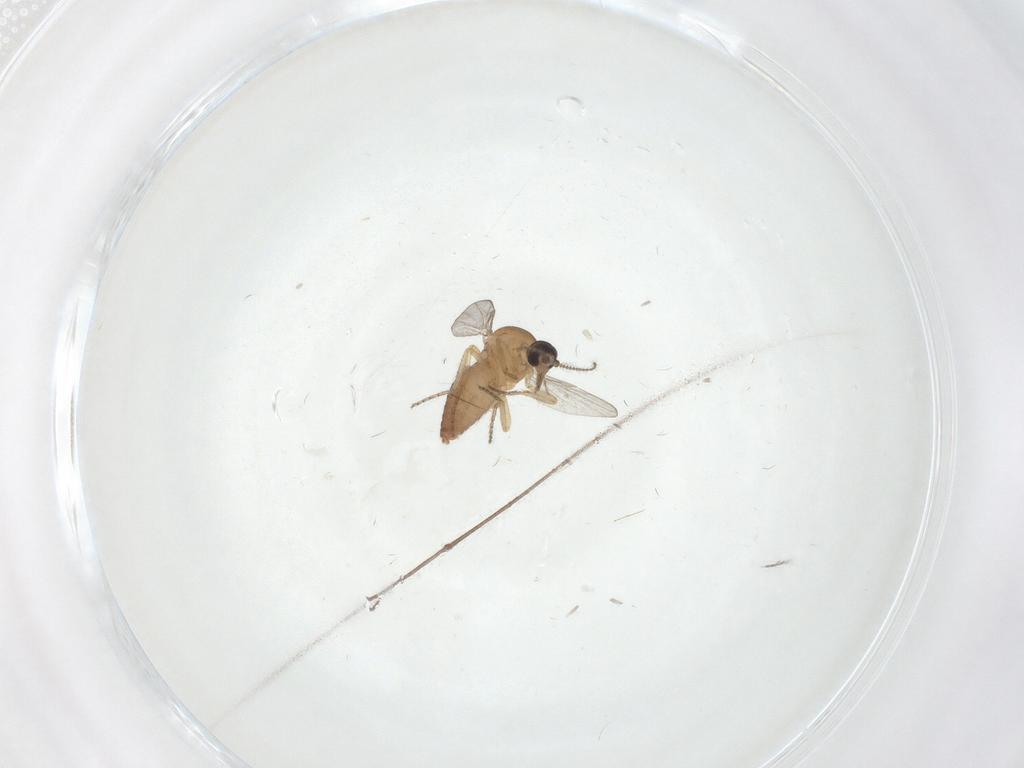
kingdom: Animalia
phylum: Arthropoda
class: Insecta
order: Diptera
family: Ceratopogonidae
